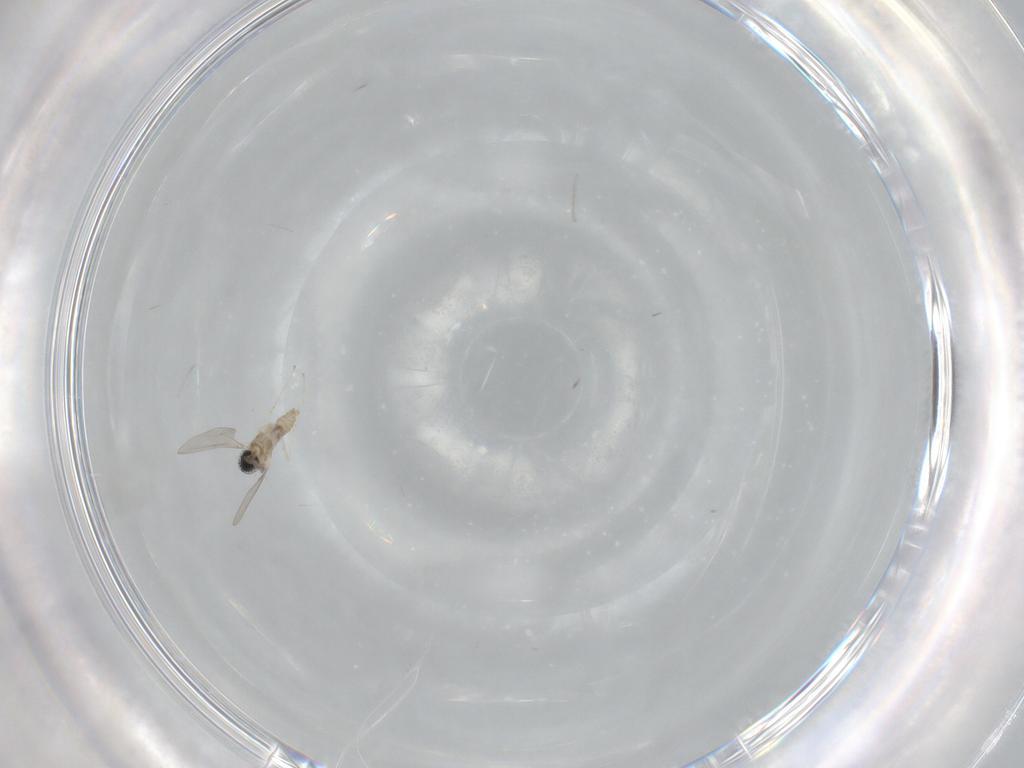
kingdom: Animalia
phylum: Arthropoda
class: Insecta
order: Diptera
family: Cecidomyiidae
